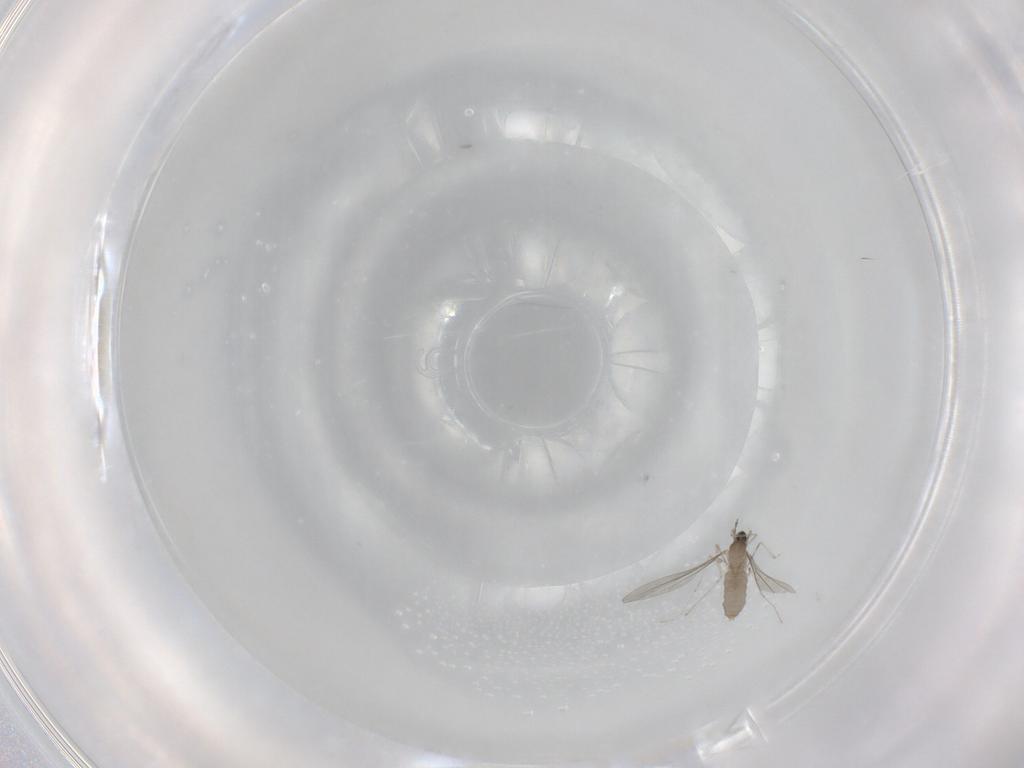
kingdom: Animalia
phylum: Arthropoda
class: Insecta
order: Diptera
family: Cecidomyiidae
